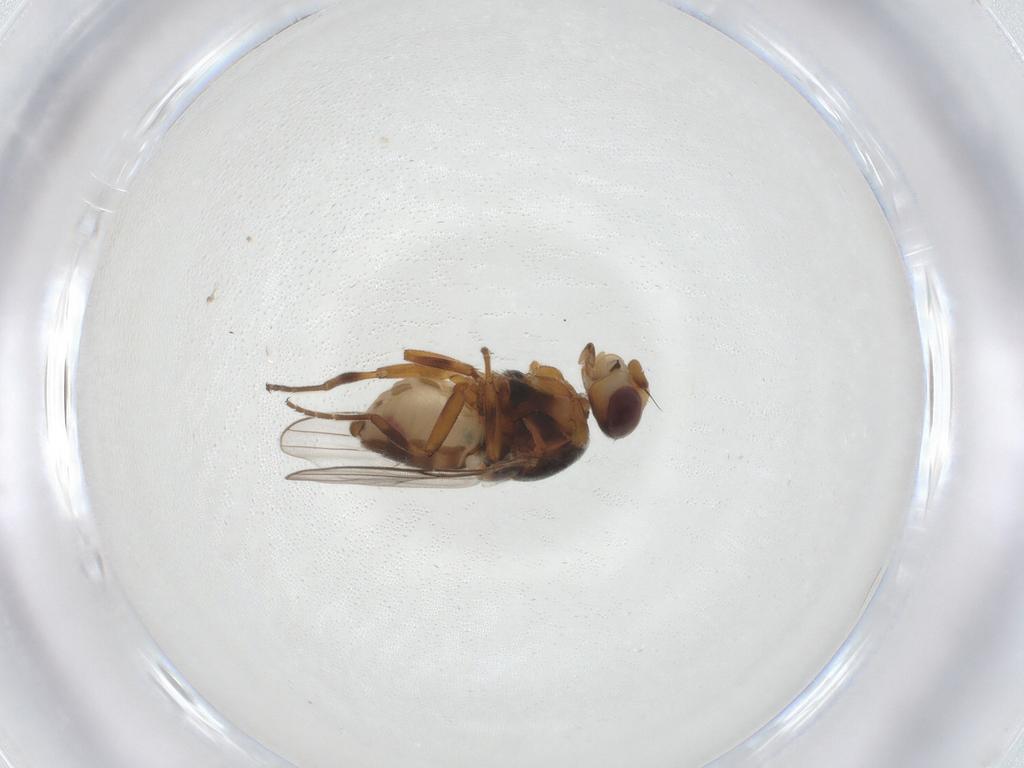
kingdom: Animalia
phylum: Arthropoda
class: Insecta
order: Diptera
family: Chloropidae
